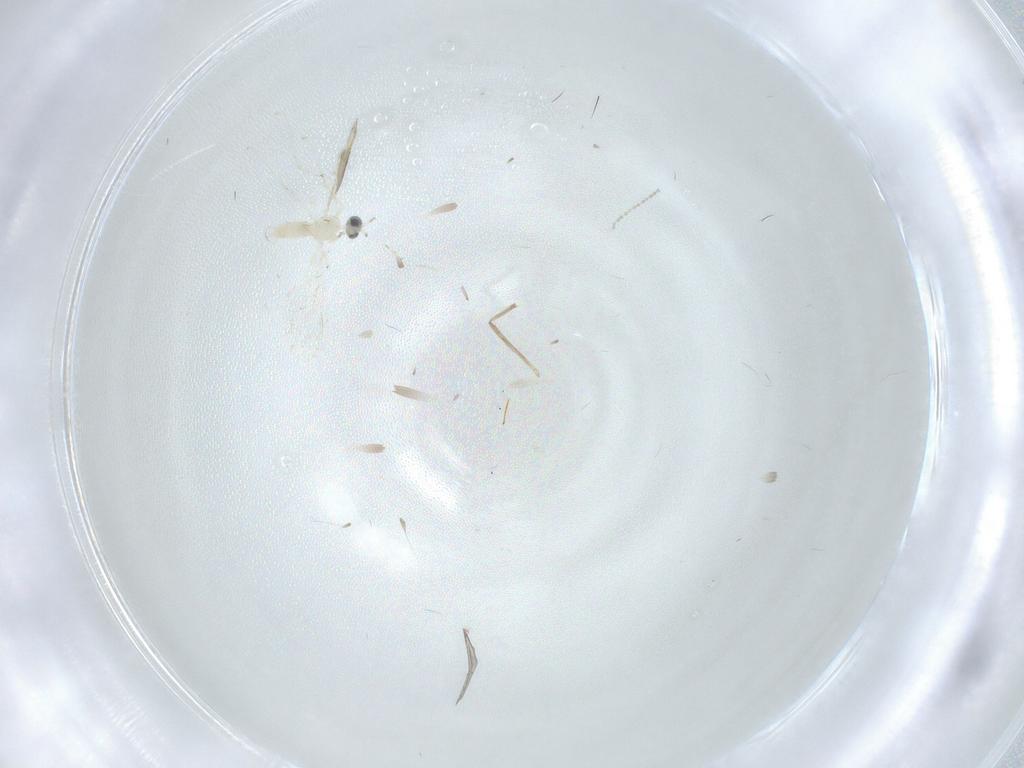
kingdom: Animalia
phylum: Arthropoda
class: Insecta
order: Diptera
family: Cecidomyiidae
